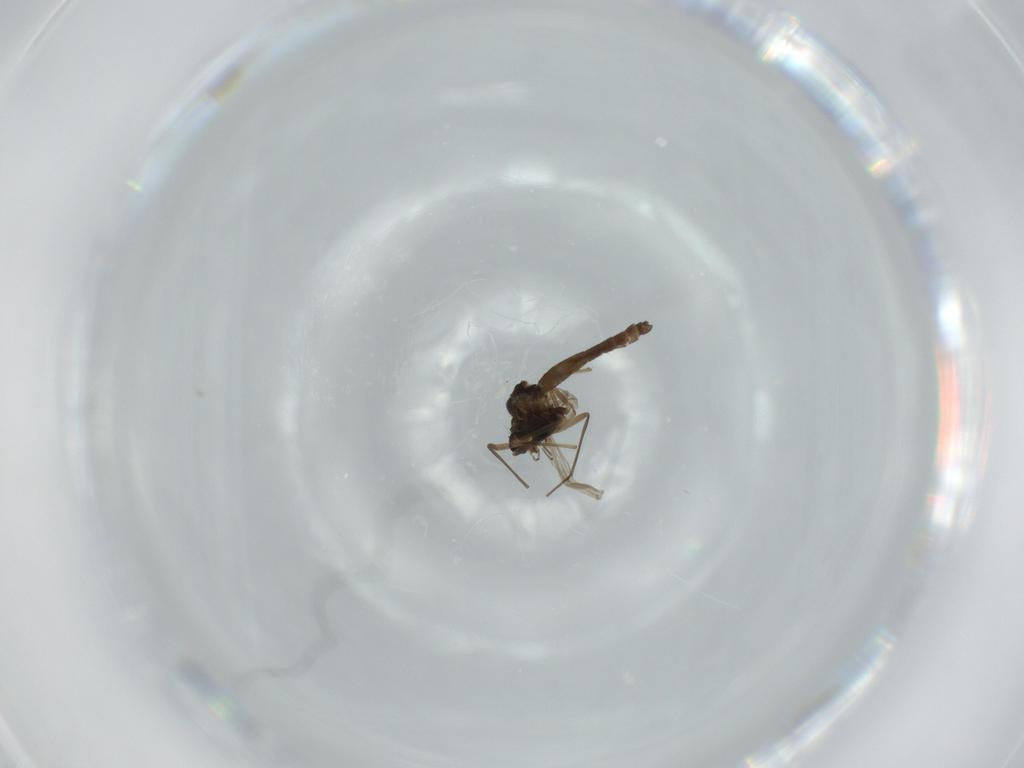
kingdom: Animalia
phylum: Arthropoda
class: Insecta
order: Diptera
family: Chironomidae
